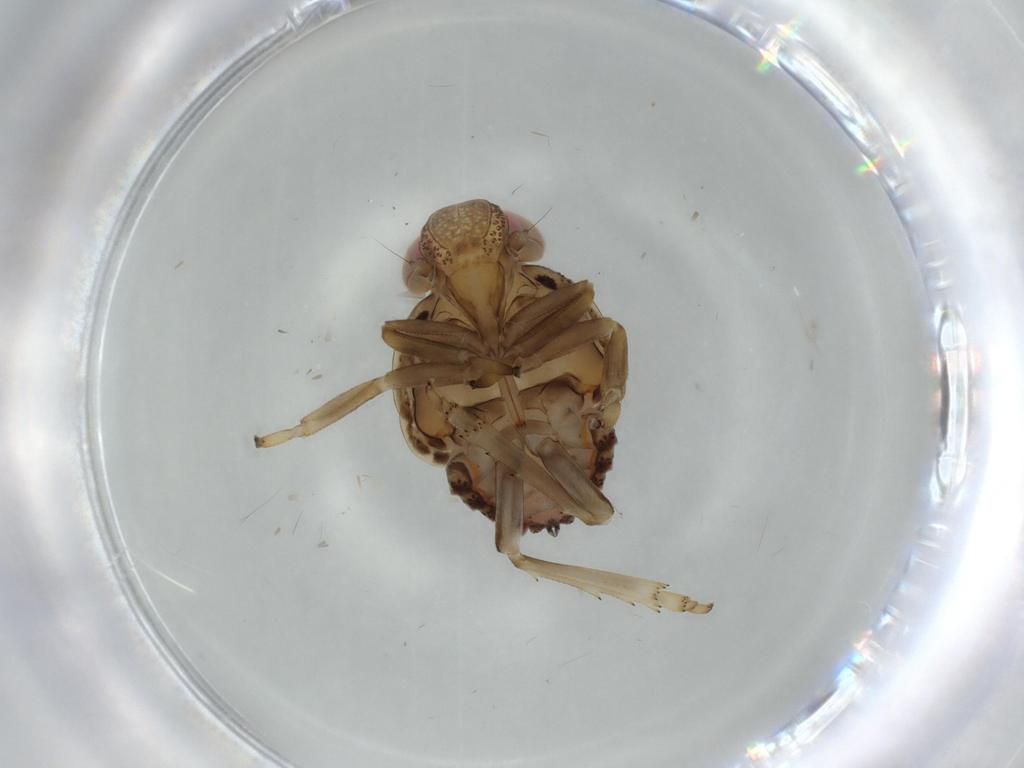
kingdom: Animalia
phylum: Arthropoda
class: Insecta
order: Hemiptera
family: Issidae
